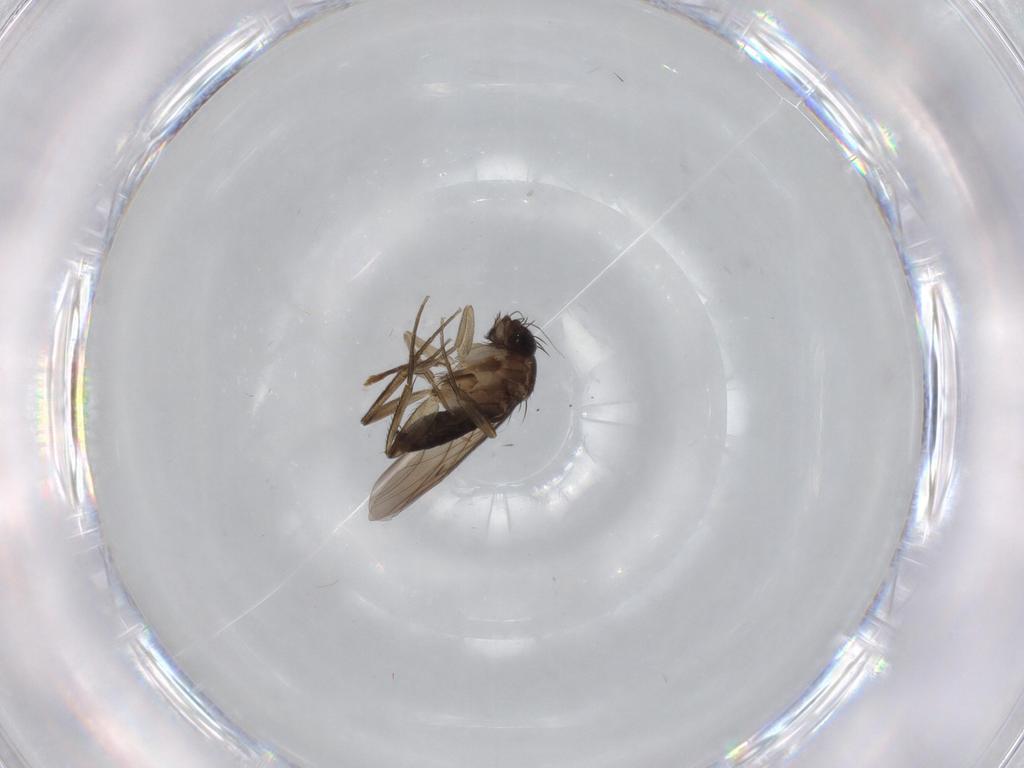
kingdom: Animalia
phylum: Arthropoda
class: Insecta
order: Diptera
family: Phoridae
